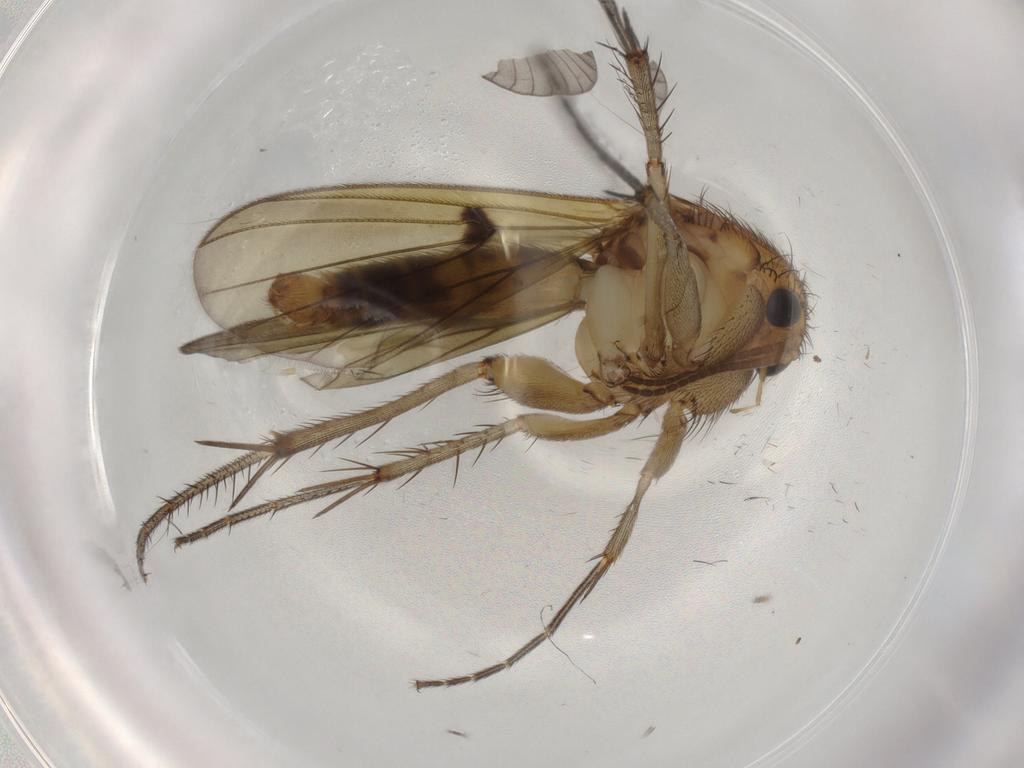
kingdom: Animalia
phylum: Arthropoda
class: Insecta
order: Diptera
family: Mycetophilidae
